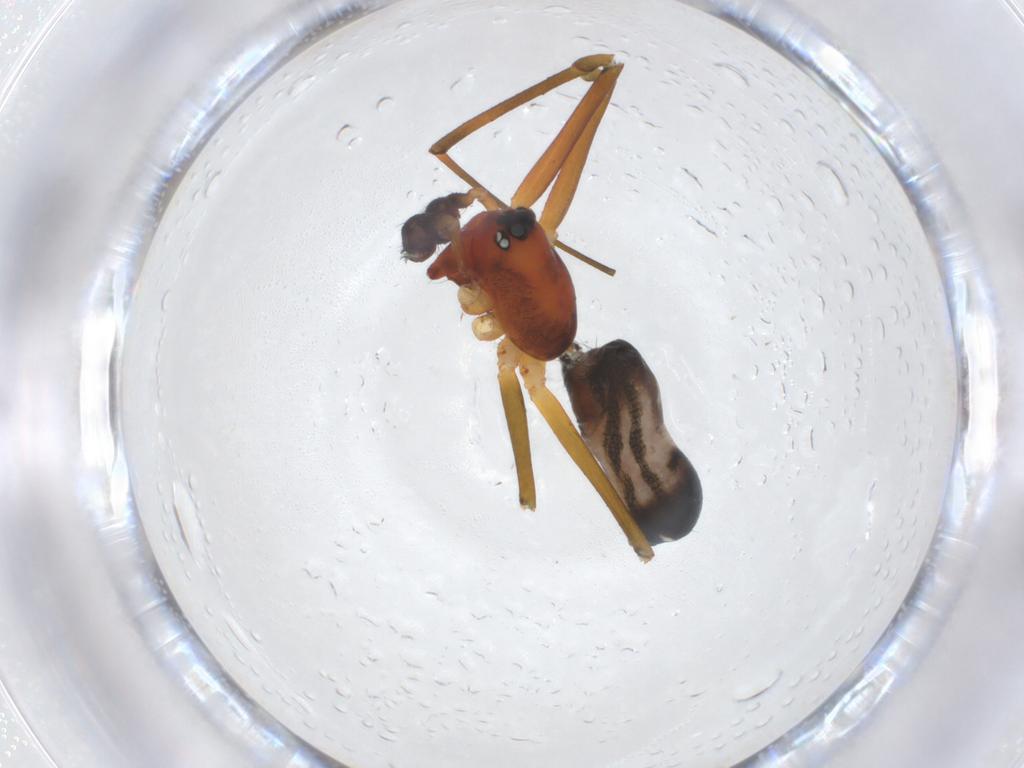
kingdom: Animalia
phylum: Arthropoda
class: Arachnida
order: Araneae
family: Linyphiidae
